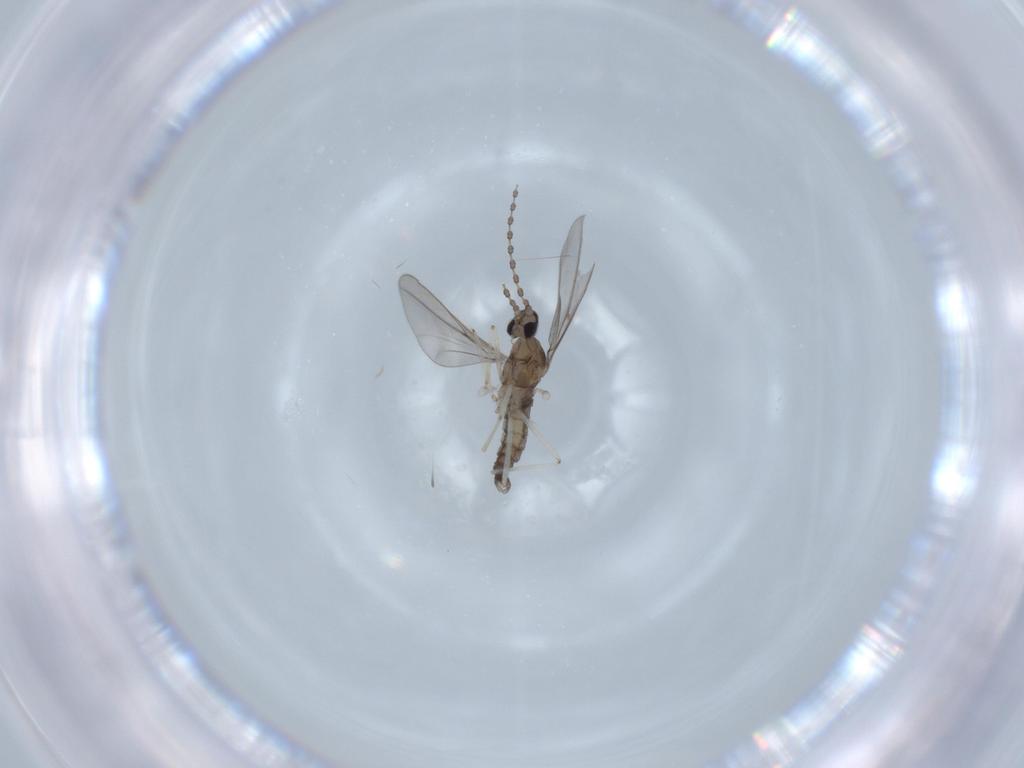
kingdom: Animalia
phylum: Arthropoda
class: Insecta
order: Diptera
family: Cecidomyiidae
